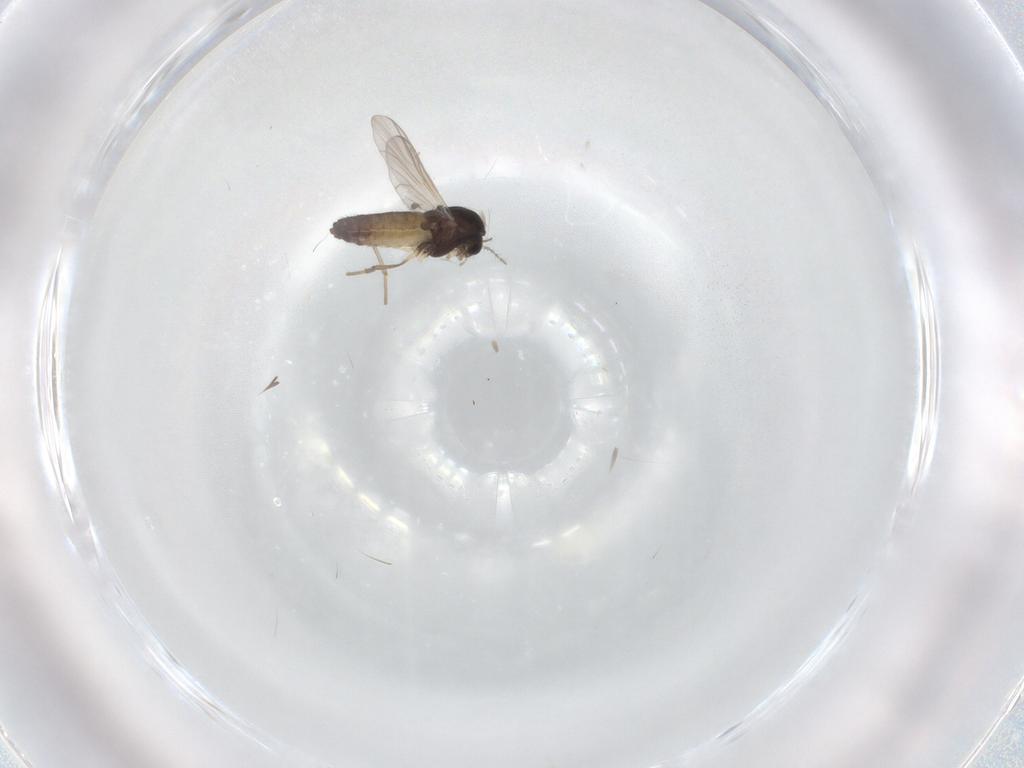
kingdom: Animalia
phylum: Arthropoda
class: Insecta
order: Diptera
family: Chironomidae
